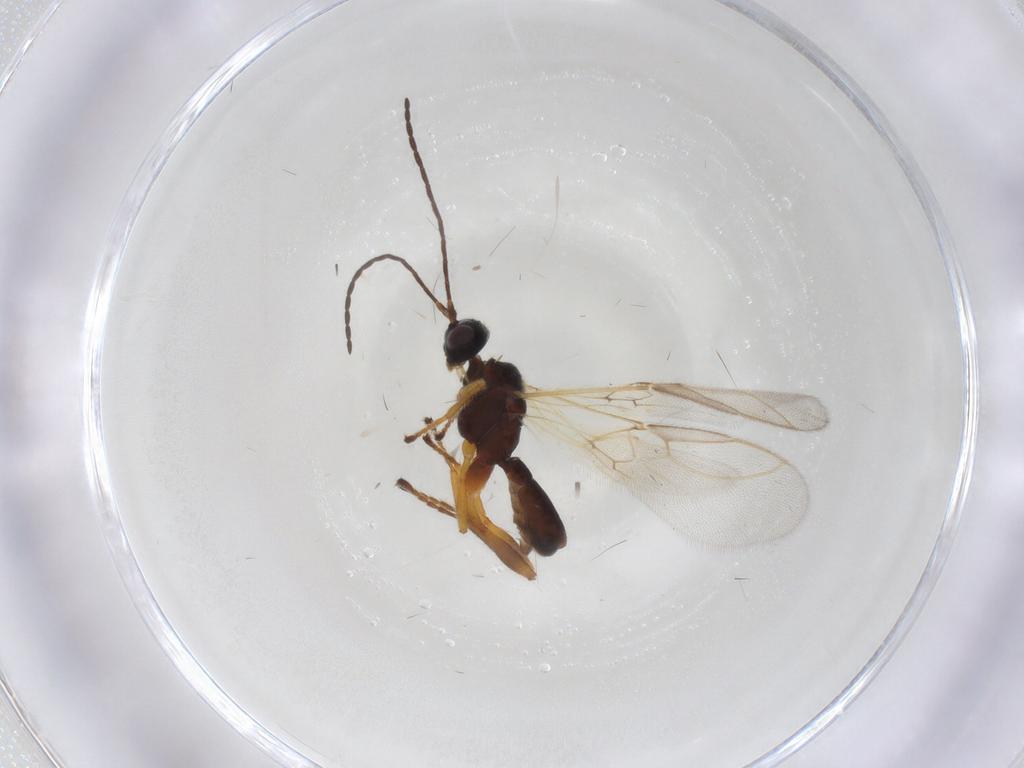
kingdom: Animalia
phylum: Arthropoda
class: Insecta
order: Hymenoptera
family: Braconidae
